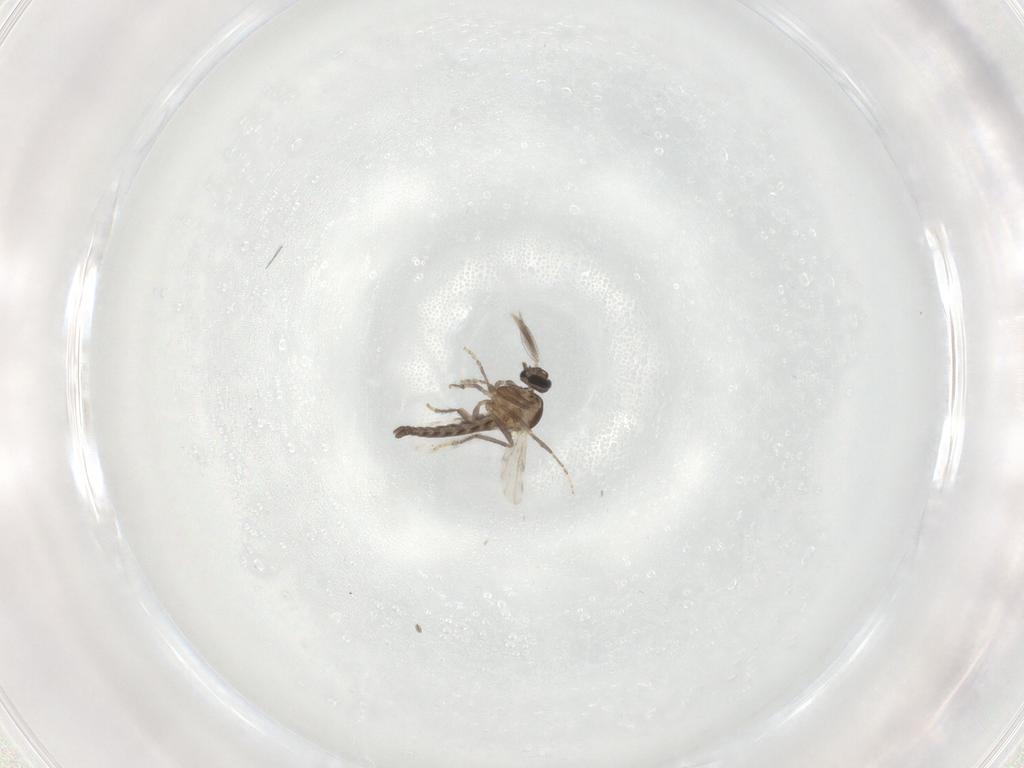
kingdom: Animalia
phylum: Arthropoda
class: Insecta
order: Diptera
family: Ceratopogonidae
